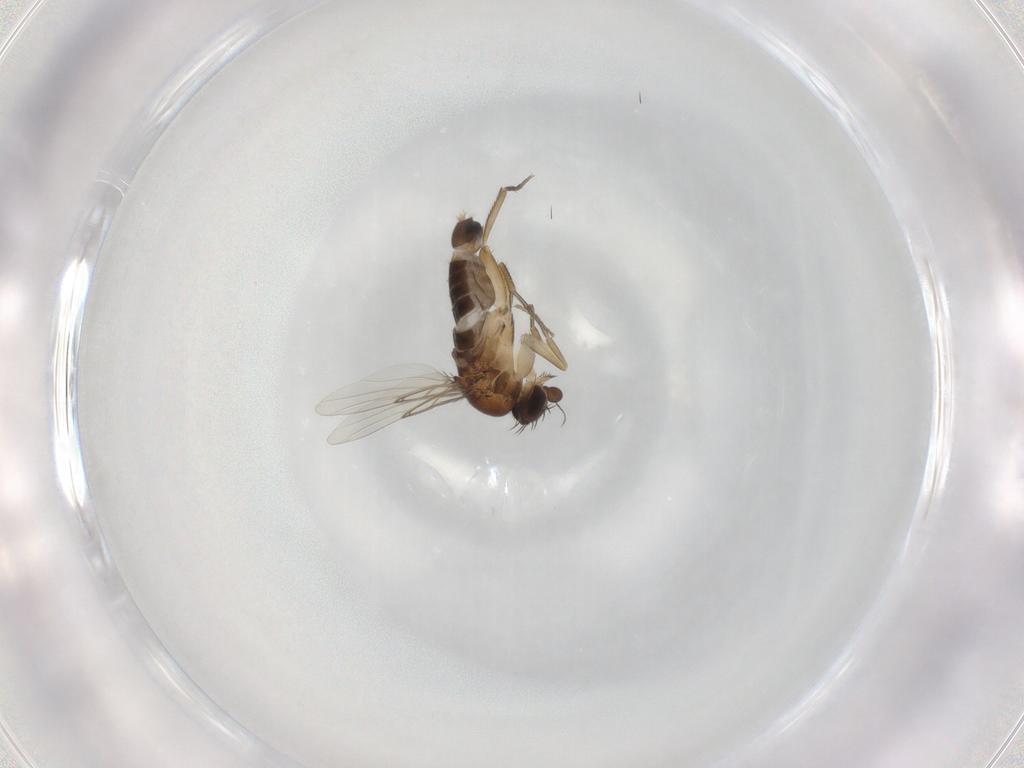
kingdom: Animalia
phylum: Arthropoda
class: Insecta
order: Diptera
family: Phoridae
